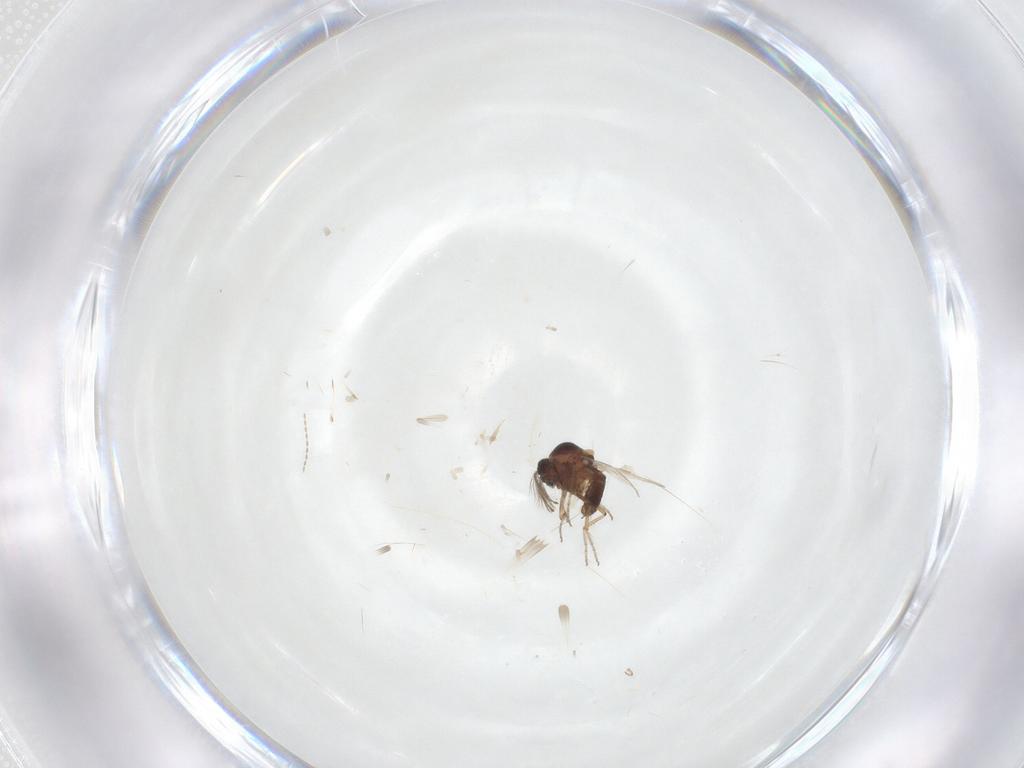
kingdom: Animalia
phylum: Arthropoda
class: Insecta
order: Diptera
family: Ceratopogonidae
